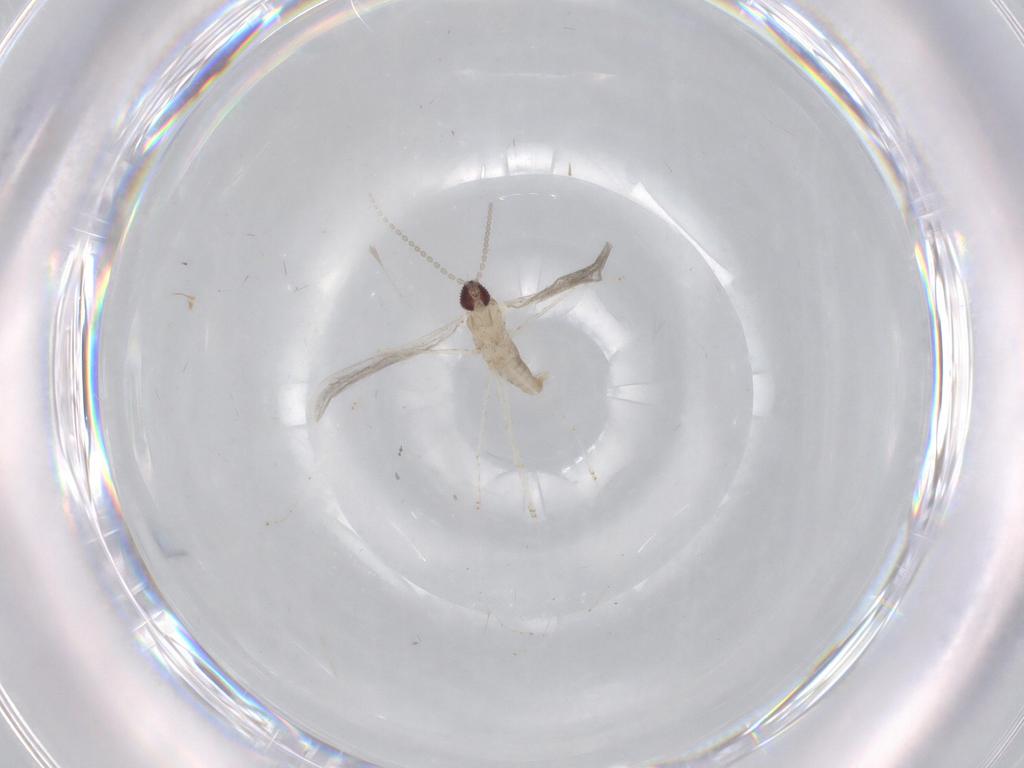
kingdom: Animalia
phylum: Arthropoda
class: Insecta
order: Diptera
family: Cecidomyiidae
